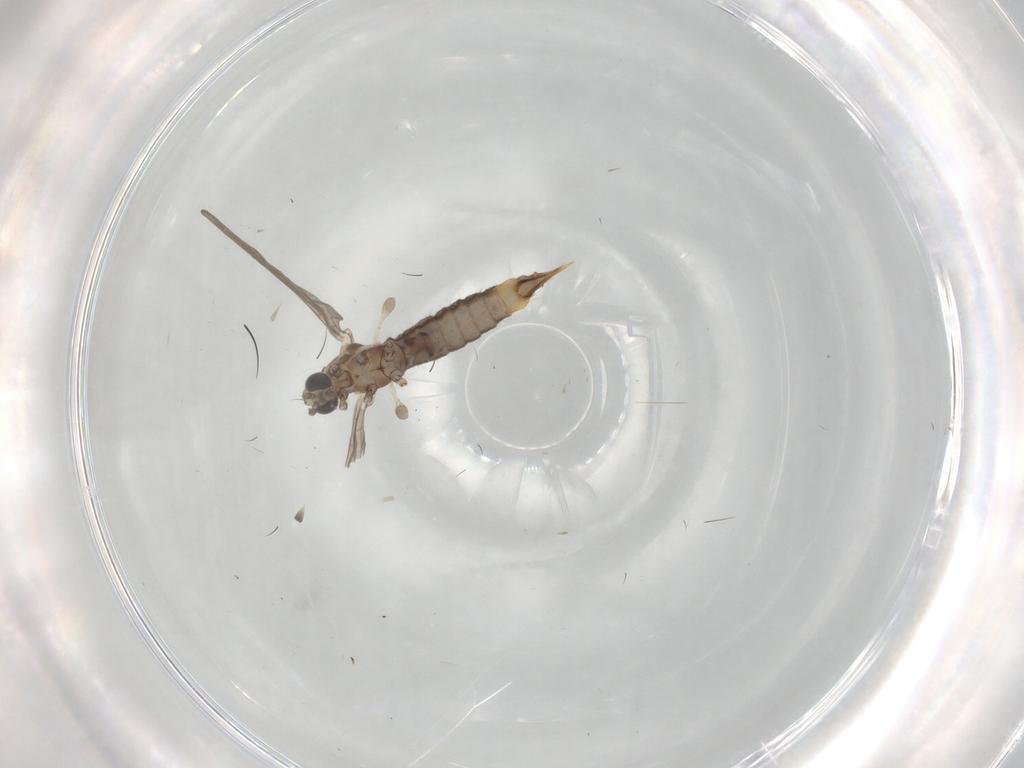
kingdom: Animalia
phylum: Arthropoda
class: Insecta
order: Diptera
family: Limoniidae
